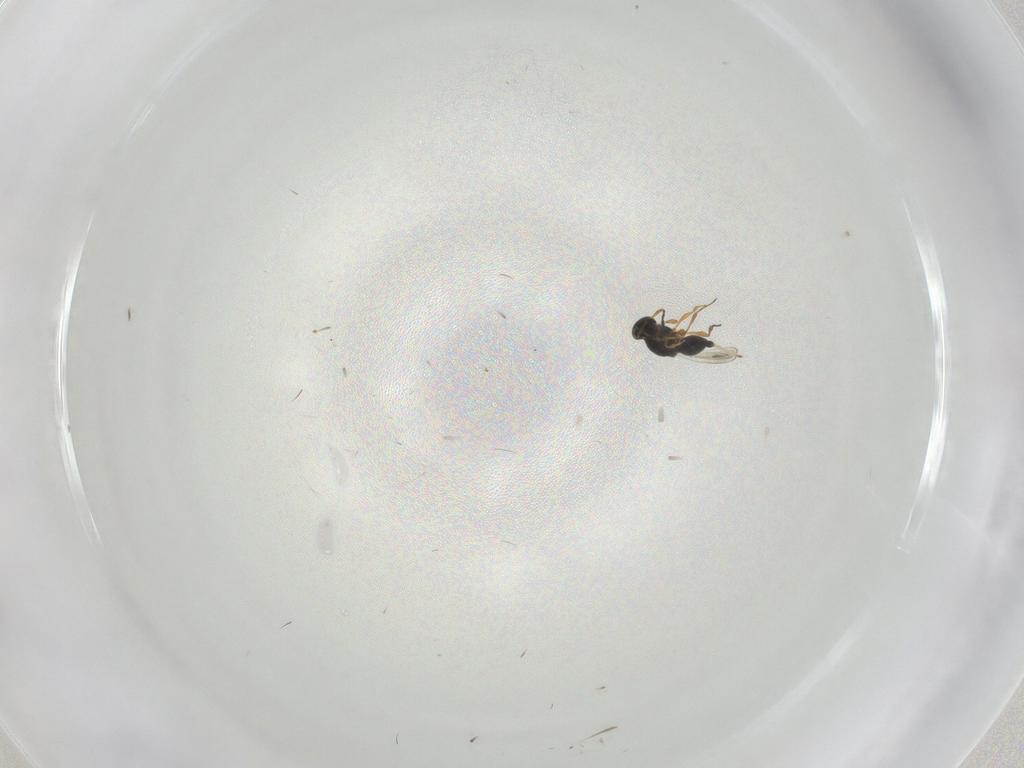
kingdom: Animalia
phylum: Arthropoda
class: Insecta
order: Hymenoptera
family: Platygastridae
